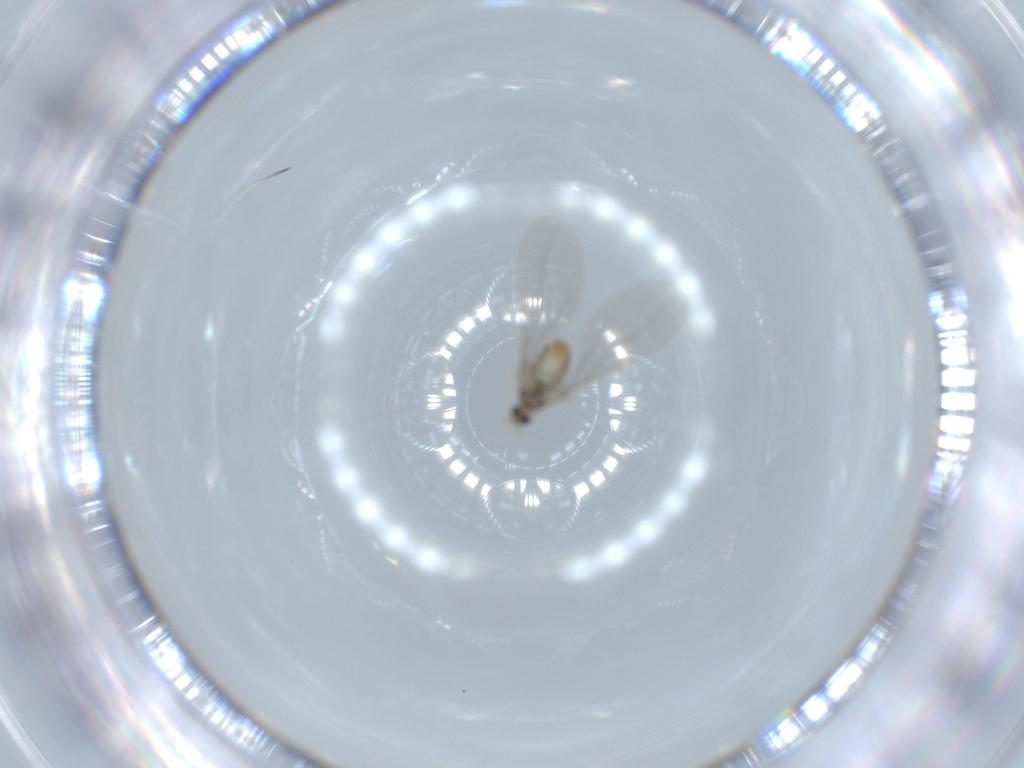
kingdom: Animalia
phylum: Arthropoda
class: Insecta
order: Diptera
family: Cecidomyiidae
